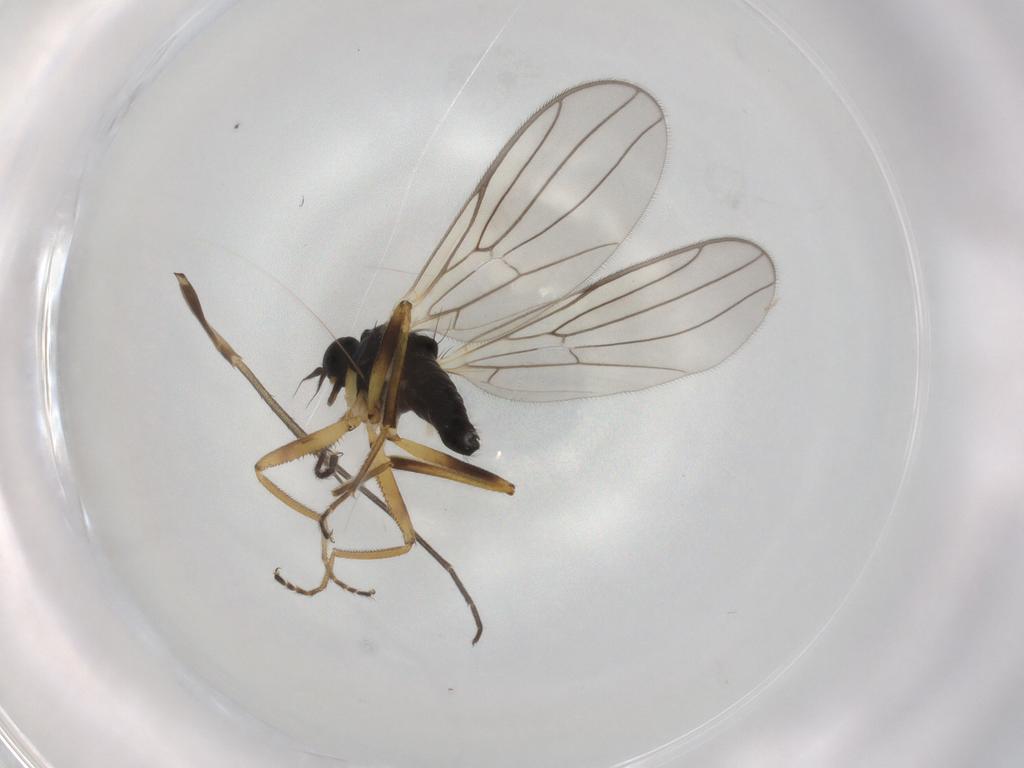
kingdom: Animalia
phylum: Arthropoda
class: Insecta
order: Diptera
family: Hybotidae
